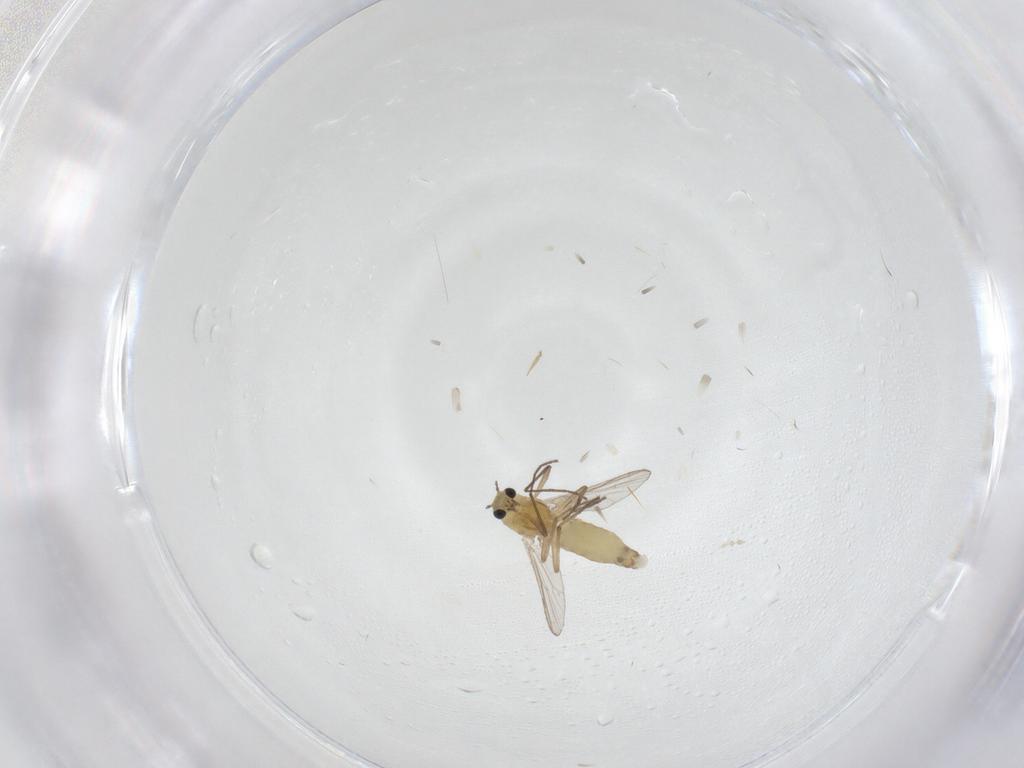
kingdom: Animalia
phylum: Arthropoda
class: Insecta
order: Diptera
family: Chironomidae
